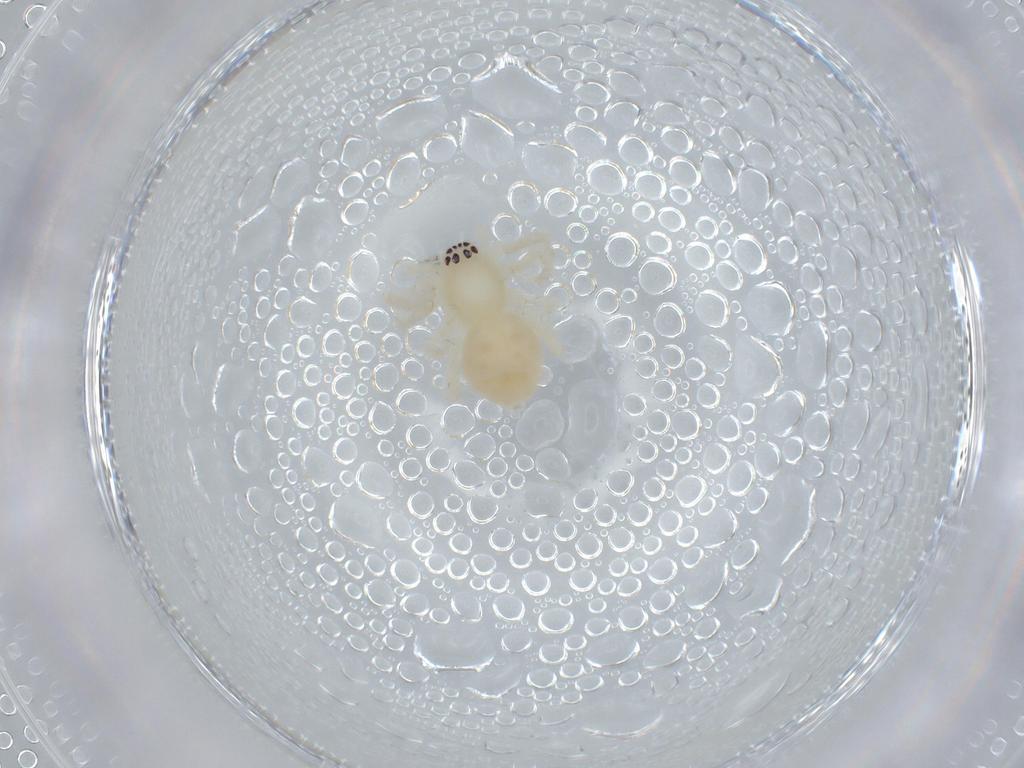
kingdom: Animalia
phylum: Arthropoda
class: Arachnida
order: Araneae
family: Anyphaenidae
